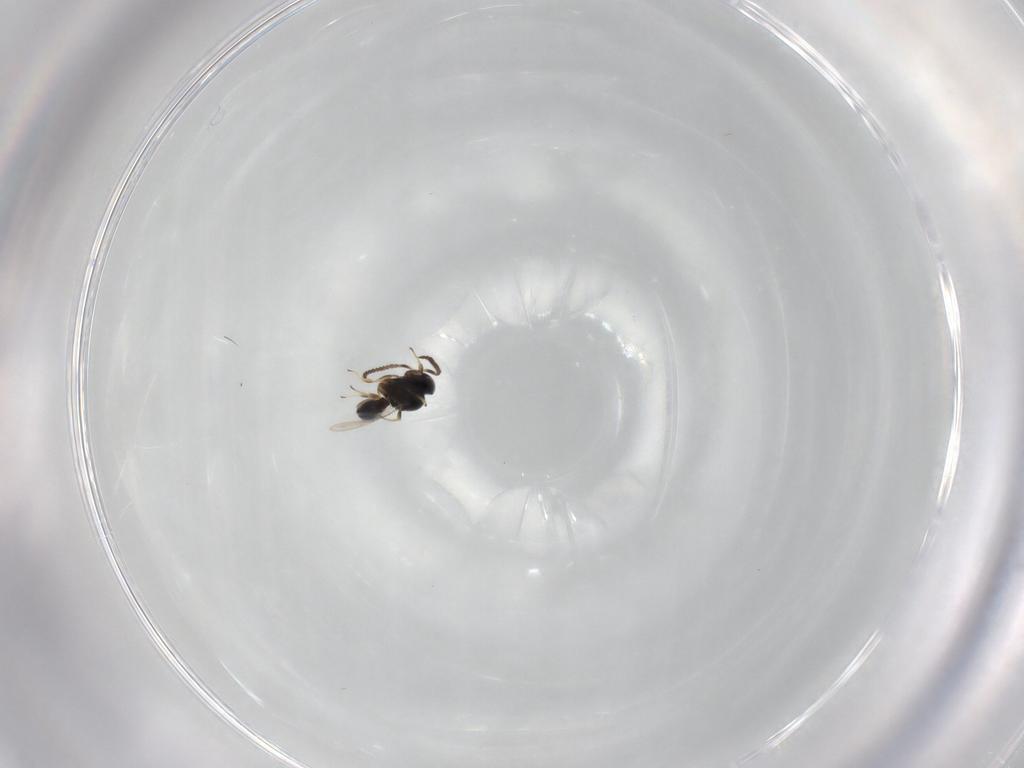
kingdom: Animalia
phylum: Arthropoda
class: Insecta
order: Hymenoptera
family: Scelionidae
